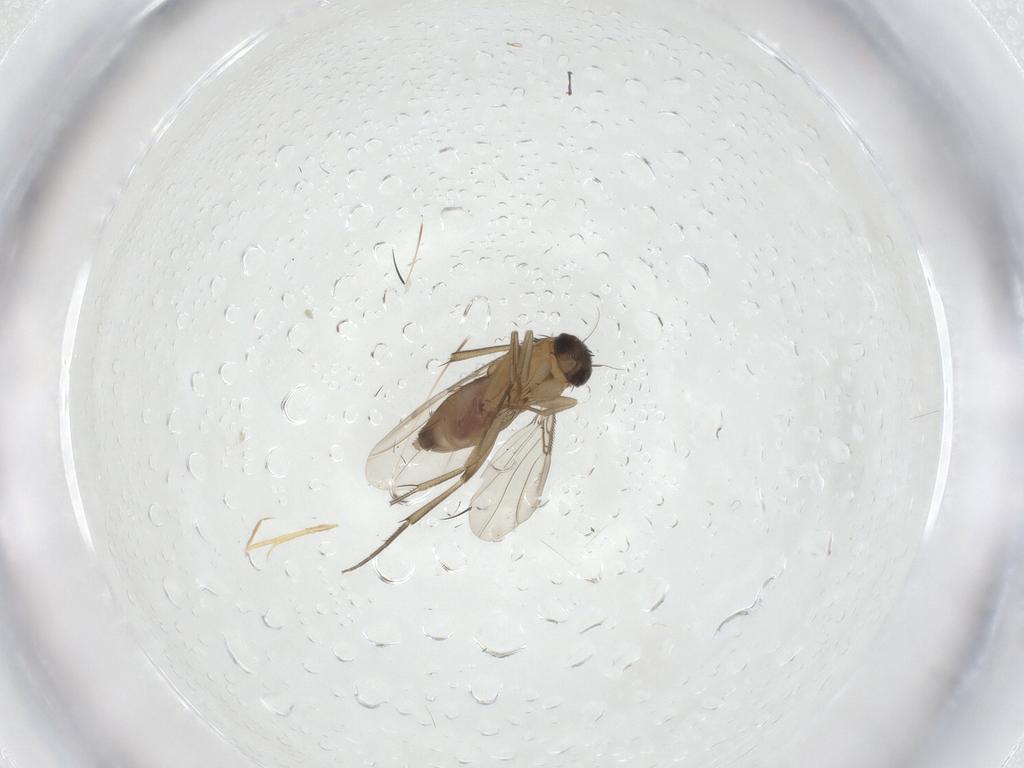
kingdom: Animalia
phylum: Arthropoda
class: Insecta
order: Diptera
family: Phoridae
